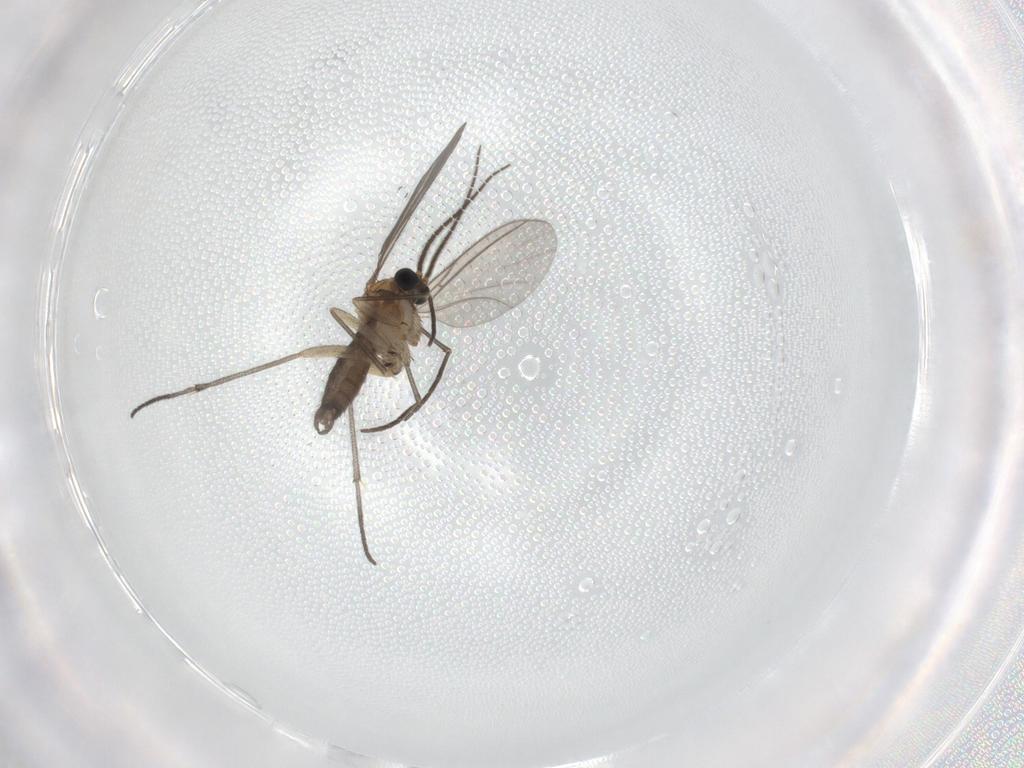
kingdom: Animalia
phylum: Arthropoda
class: Insecta
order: Diptera
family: Sciaridae
